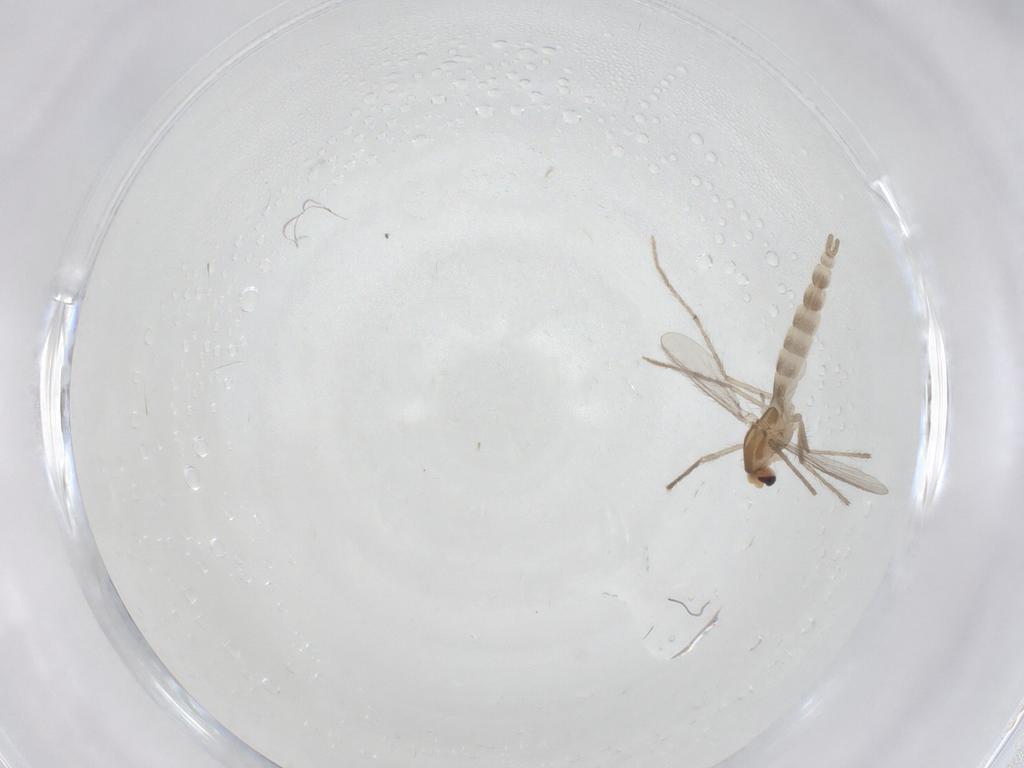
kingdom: Animalia
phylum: Arthropoda
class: Insecta
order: Diptera
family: Chironomidae
